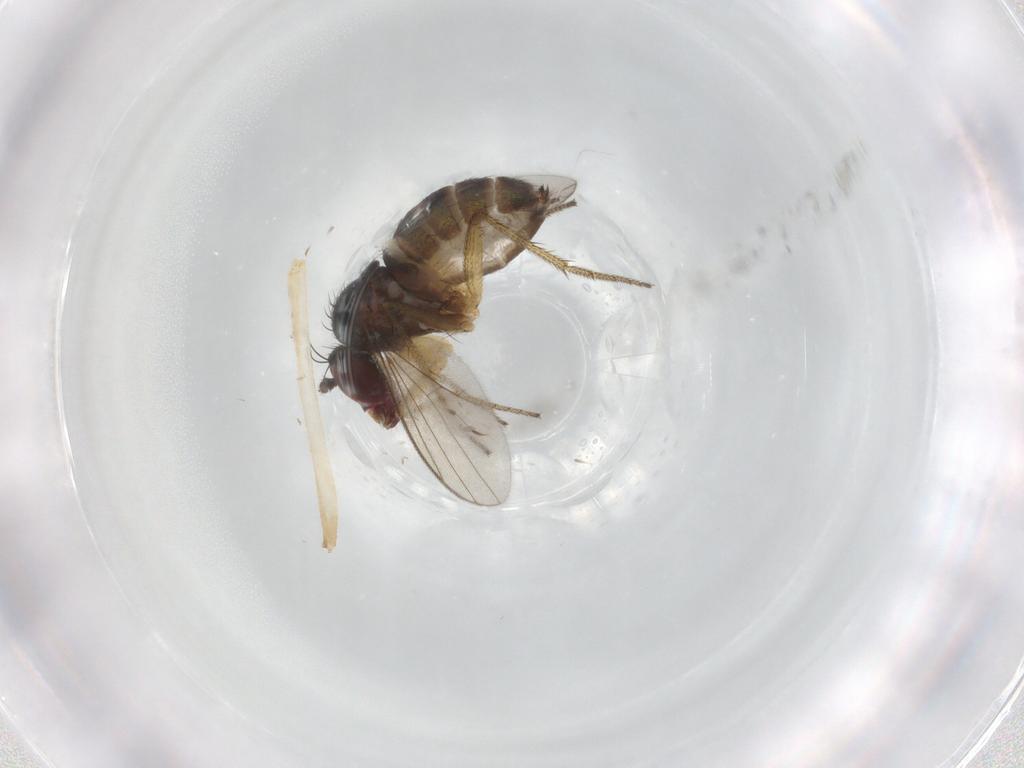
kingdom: Animalia
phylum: Arthropoda
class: Insecta
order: Diptera
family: Dolichopodidae
